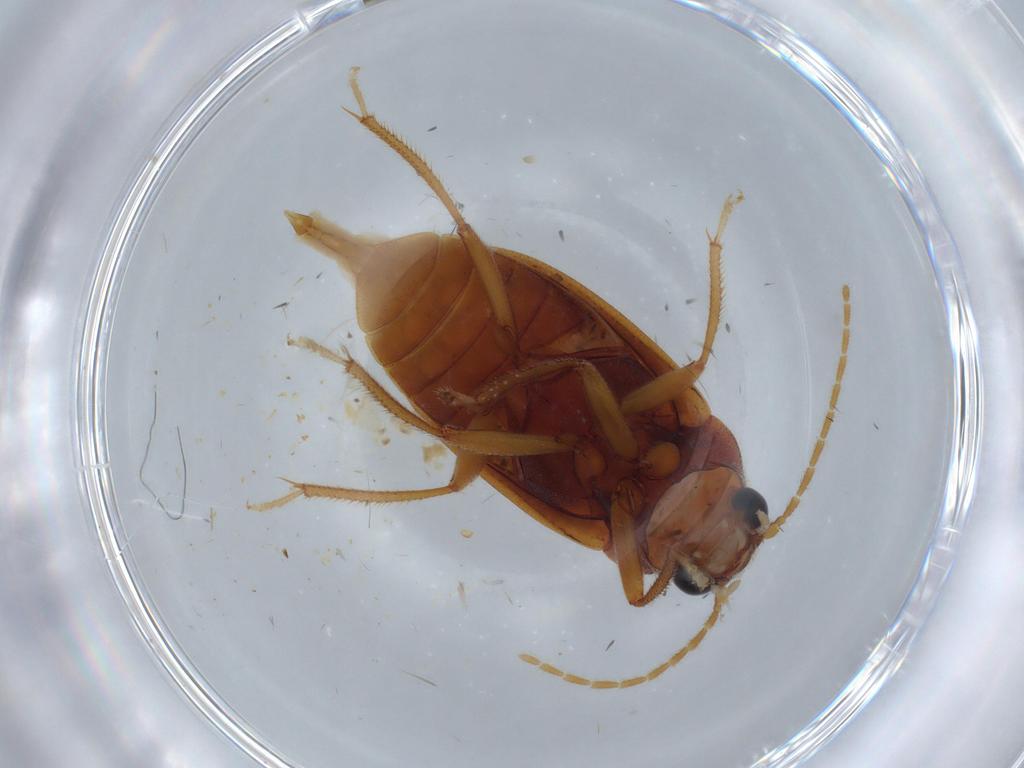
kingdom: Animalia
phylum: Arthropoda
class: Insecta
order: Coleoptera
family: Ptilodactylidae
